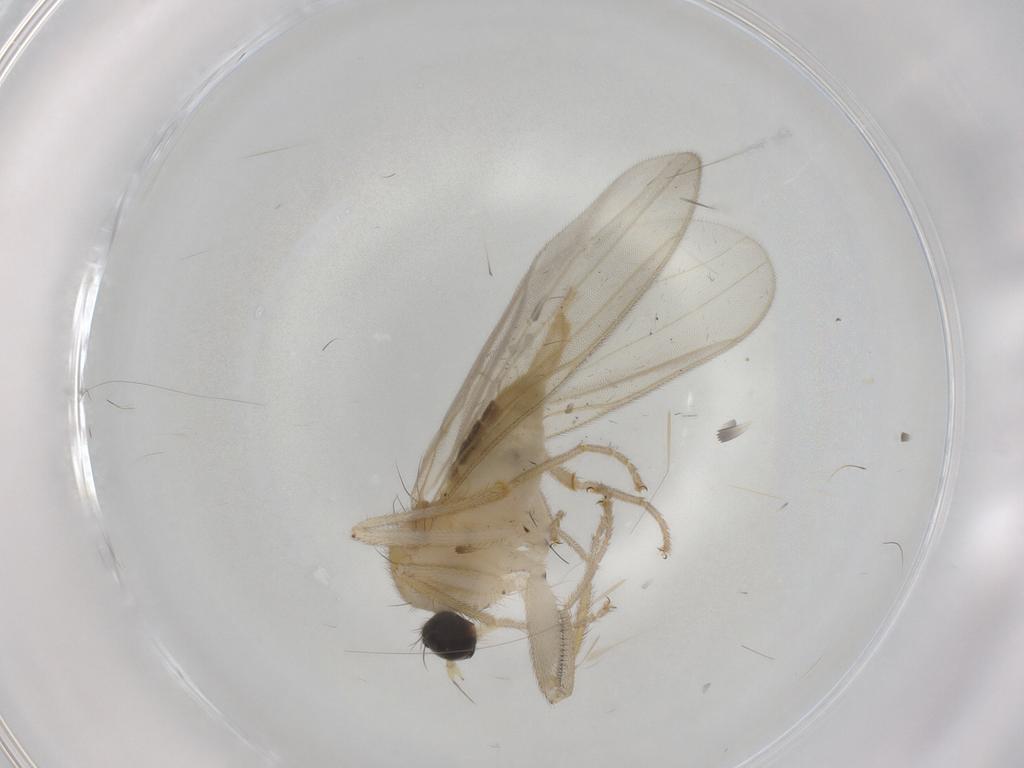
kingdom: Animalia
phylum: Arthropoda
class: Insecta
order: Diptera
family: Hybotidae
